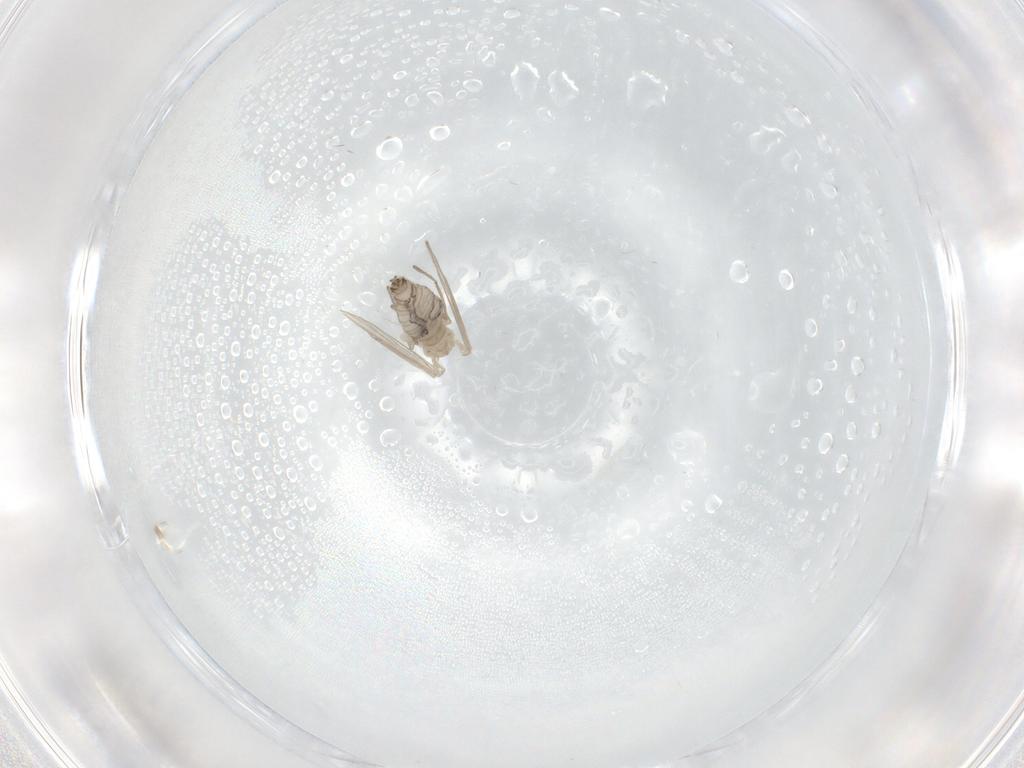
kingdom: Animalia
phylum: Arthropoda
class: Insecta
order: Diptera
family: Psychodidae
